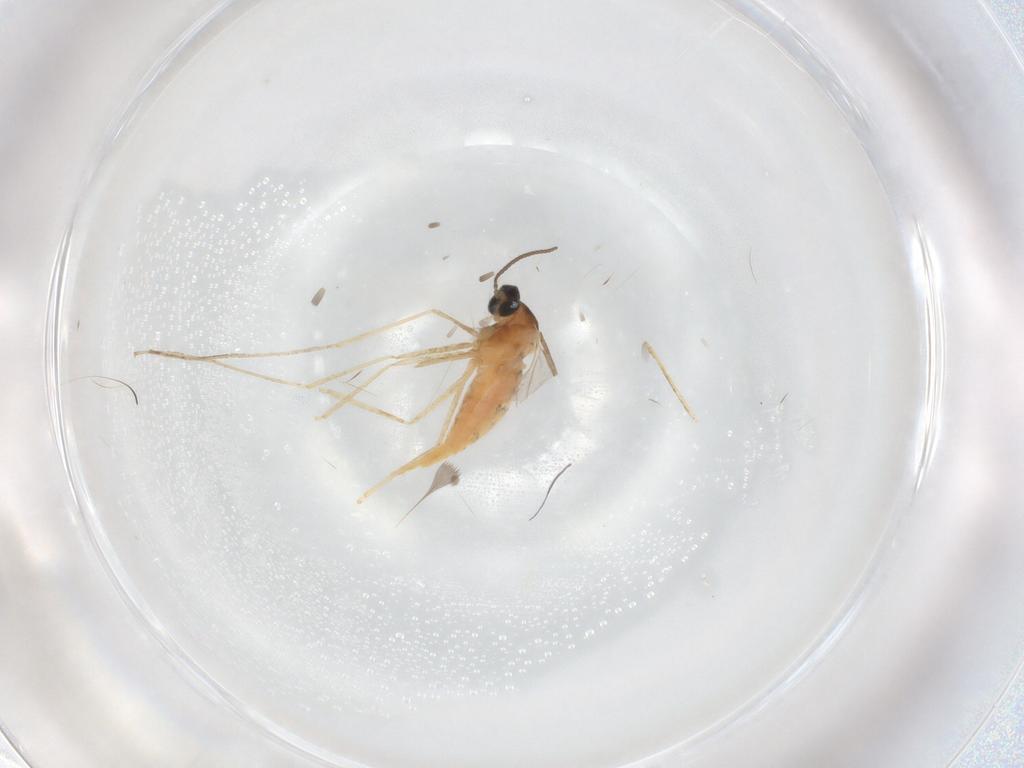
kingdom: Animalia
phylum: Arthropoda
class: Insecta
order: Diptera
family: Cecidomyiidae
